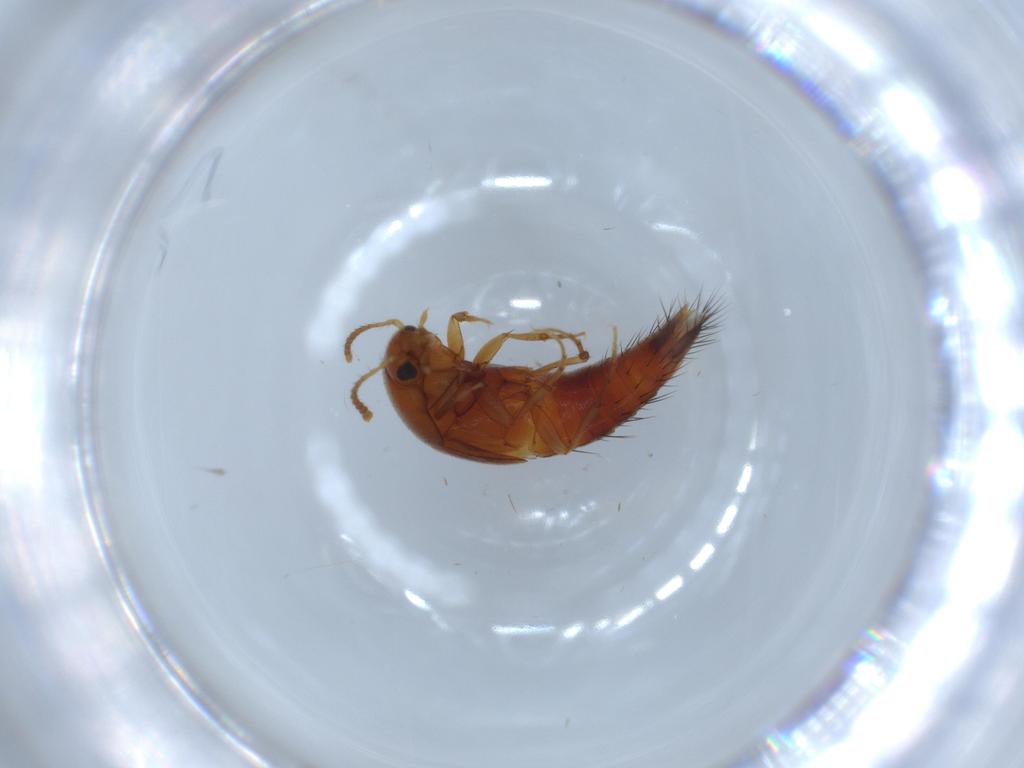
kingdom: Animalia
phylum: Arthropoda
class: Insecta
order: Coleoptera
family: Staphylinidae
